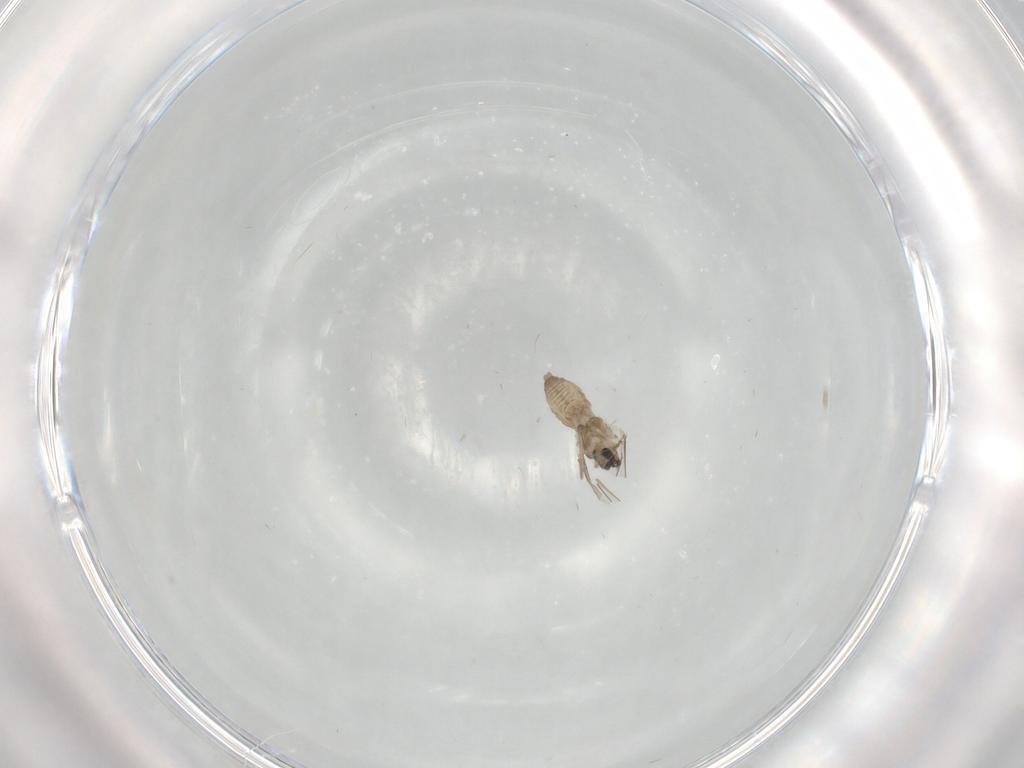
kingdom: Animalia
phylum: Arthropoda
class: Insecta
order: Diptera
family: Cecidomyiidae
